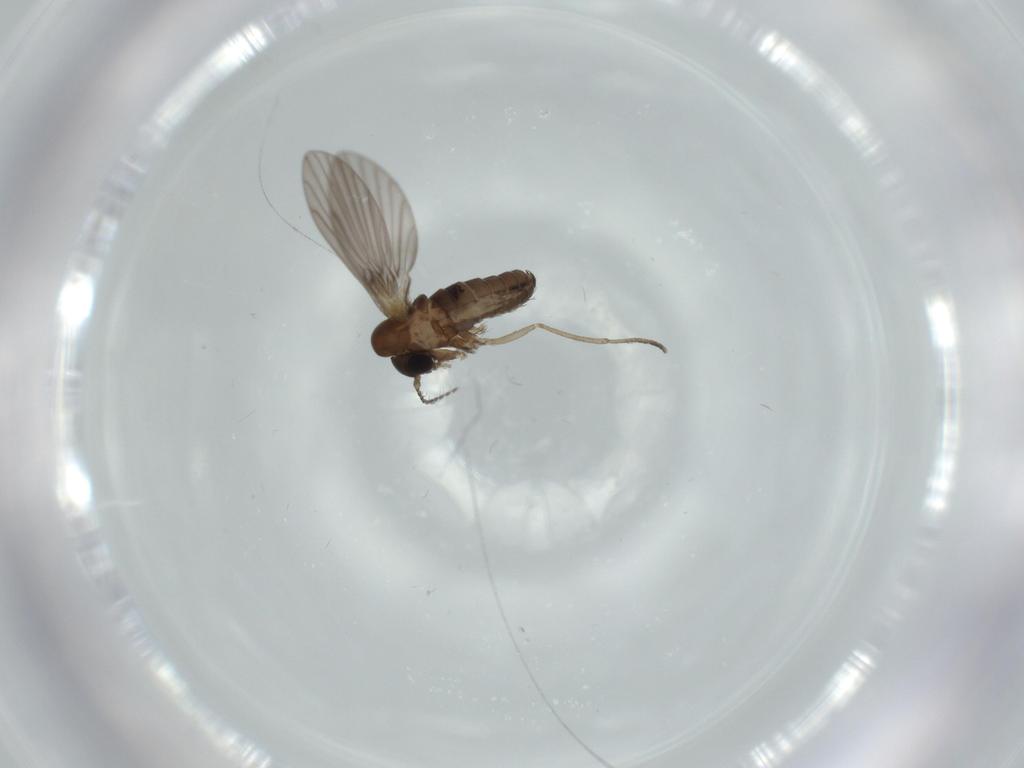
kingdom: Animalia
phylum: Arthropoda
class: Insecta
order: Diptera
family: Psychodidae
